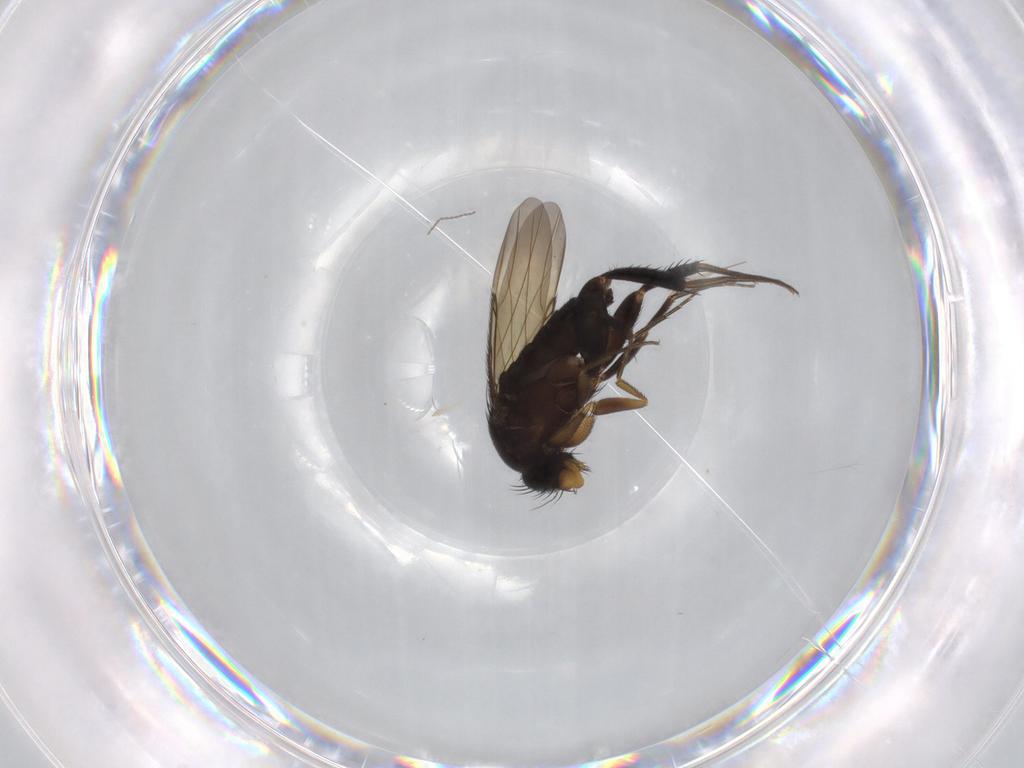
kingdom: Animalia
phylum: Arthropoda
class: Insecta
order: Diptera
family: Phoridae
